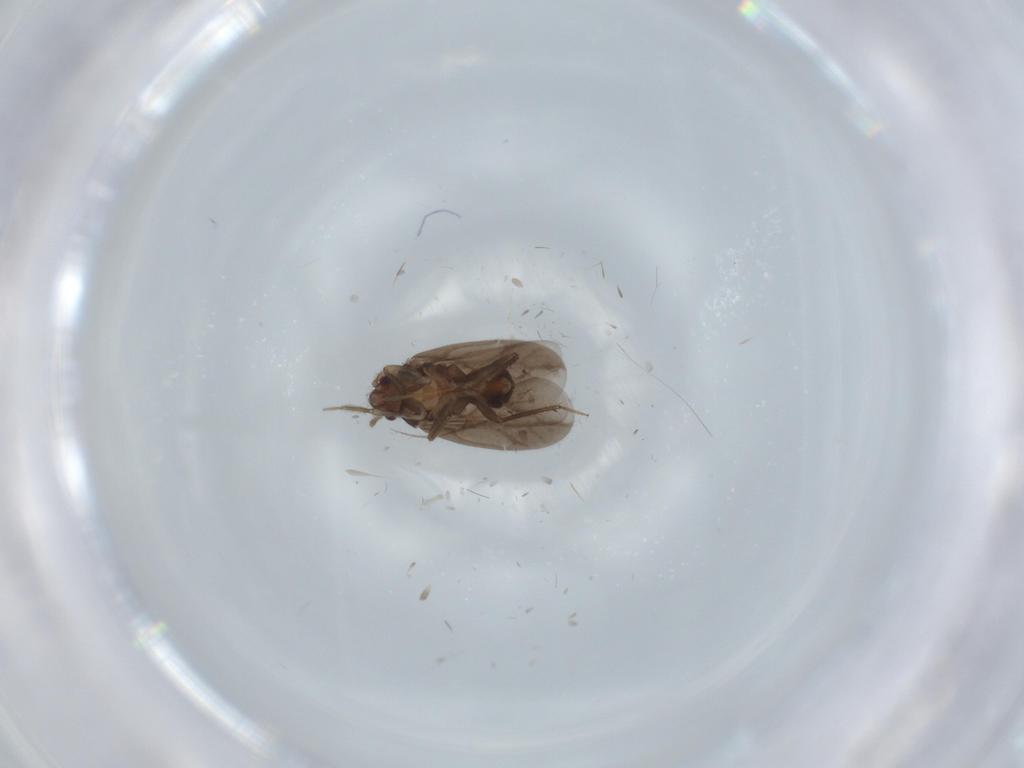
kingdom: Animalia
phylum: Arthropoda
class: Insecta
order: Hemiptera
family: Ceratocombidae
